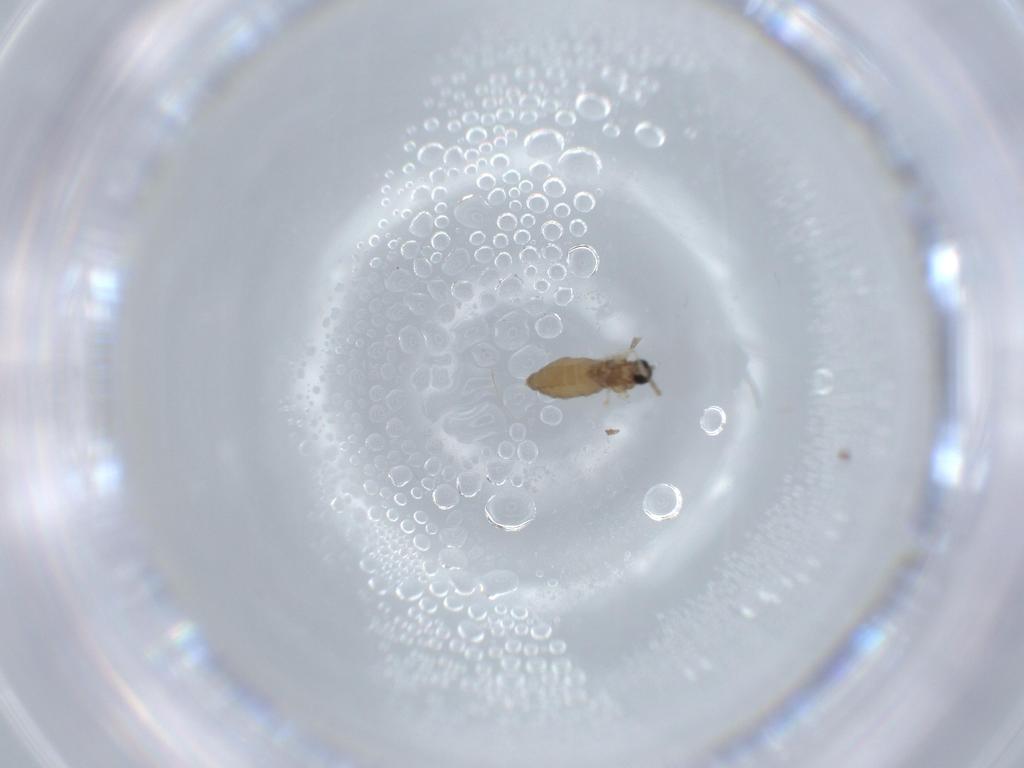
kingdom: Animalia
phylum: Arthropoda
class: Insecta
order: Diptera
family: Cecidomyiidae
